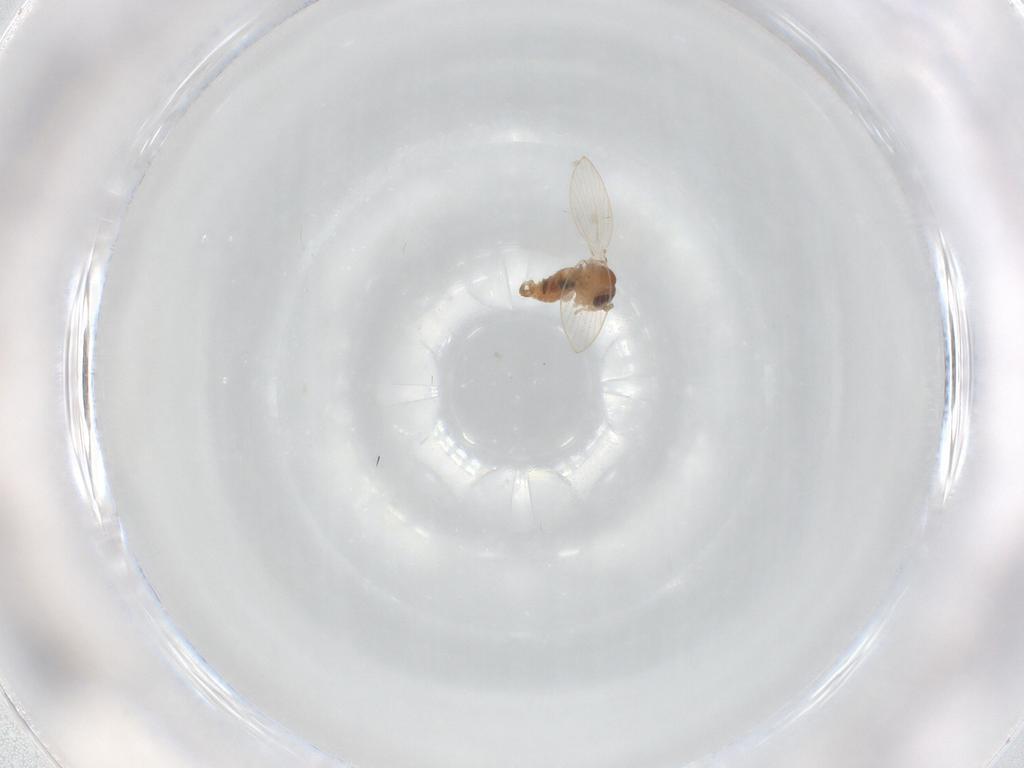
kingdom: Animalia
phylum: Arthropoda
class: Insecta
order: Diptera
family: Psychodidae
